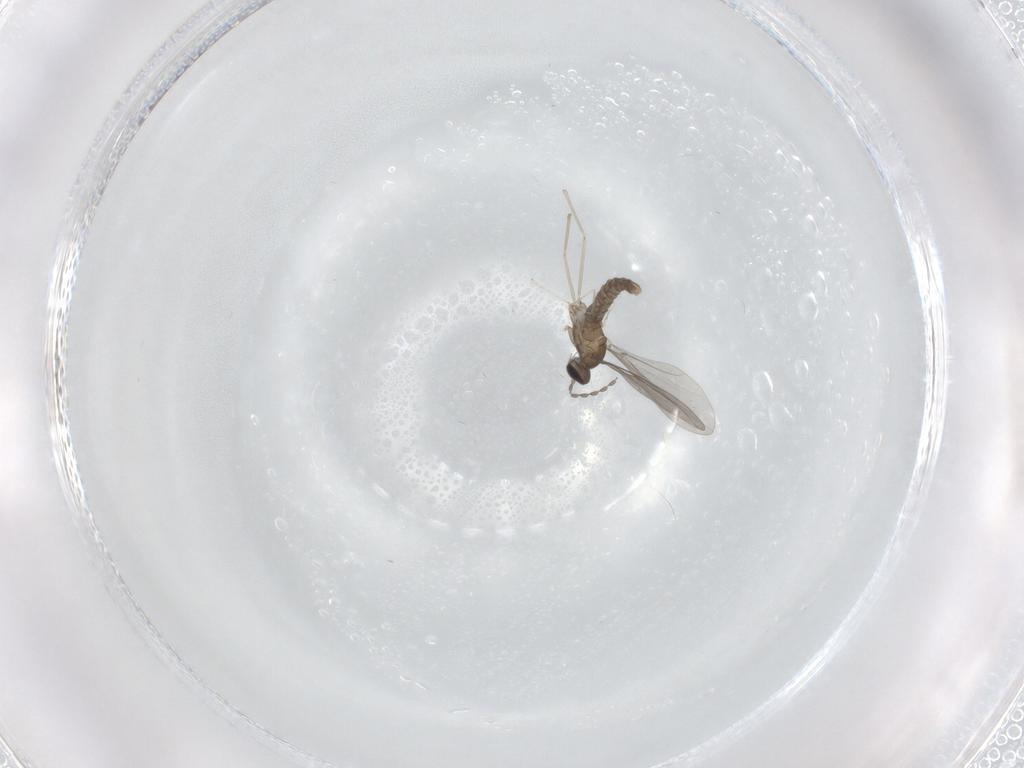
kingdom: Animalia
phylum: Arthropoda
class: Insecta
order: Diptera
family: Cecidomyiidae
